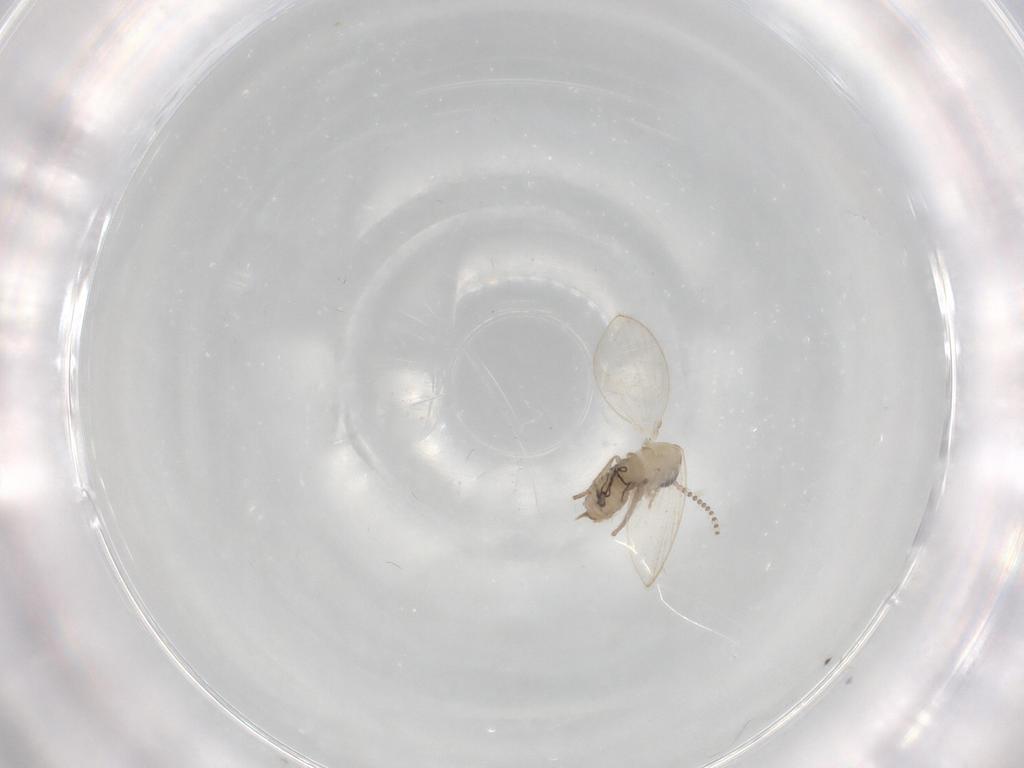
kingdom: Animalia
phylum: Arthropoda
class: Insecta
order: Diptera
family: Psychodidae
